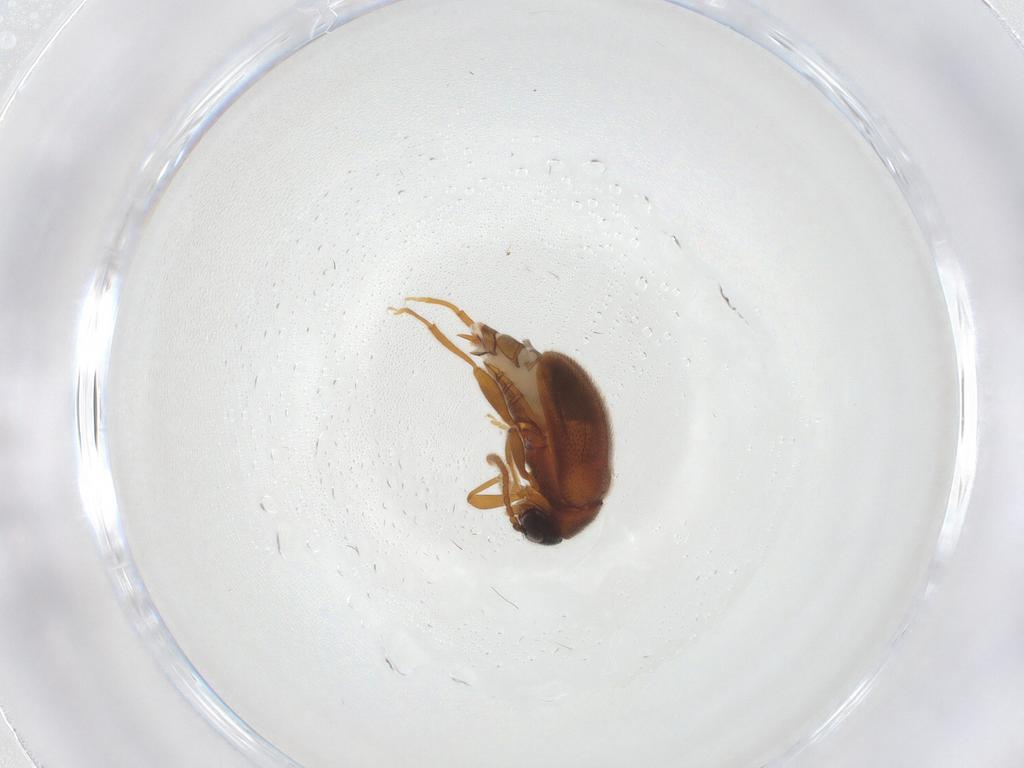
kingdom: Animalia
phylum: Arthropoda
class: Insecta
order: Coleoptera
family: Aderidae
